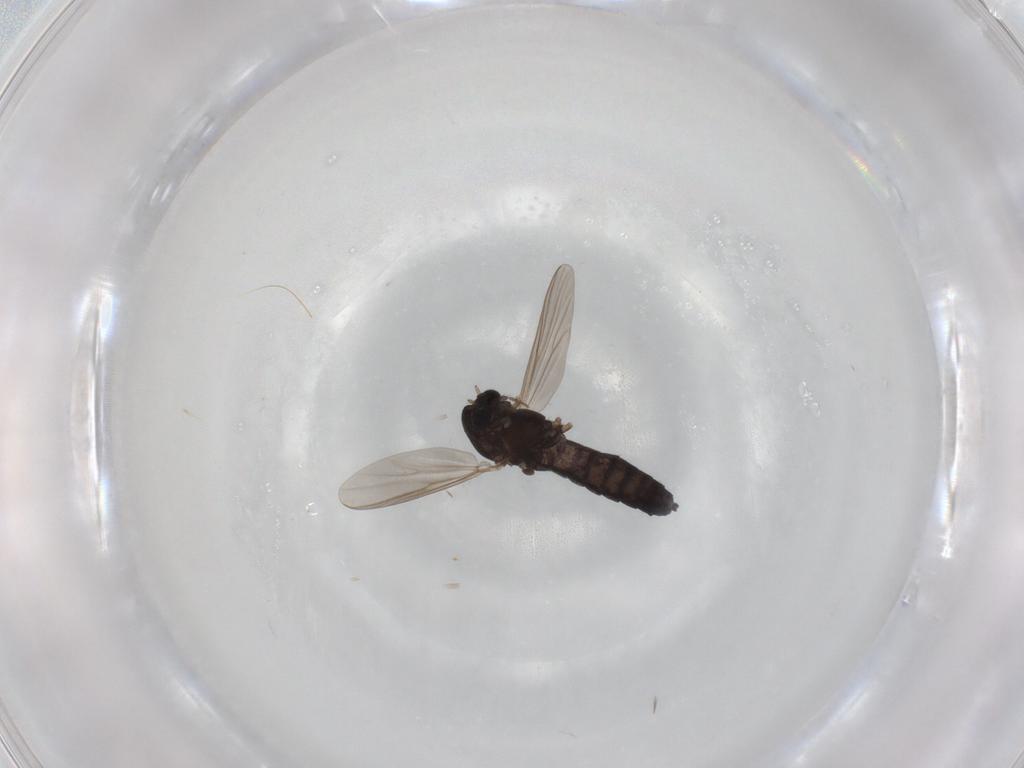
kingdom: Animalia
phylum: Arthropoda
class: Insecta
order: Diptera
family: Chironomidae
